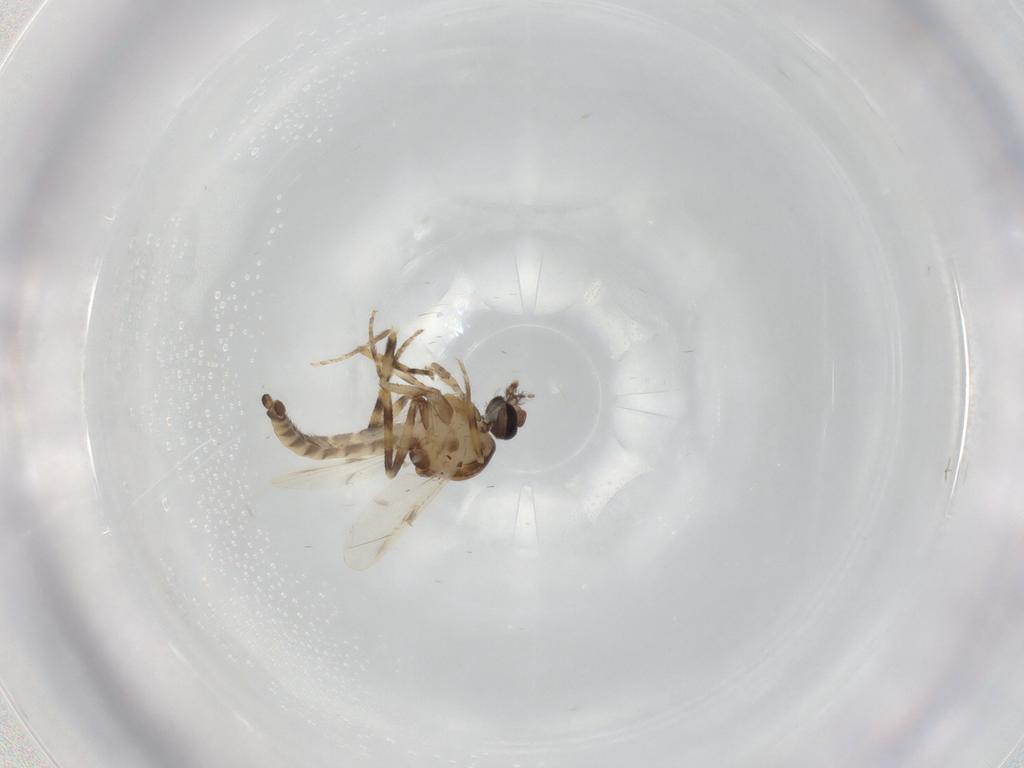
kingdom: Animalia
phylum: Arthropoda
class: Insecta
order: Diptera
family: Ceratopogonidae
